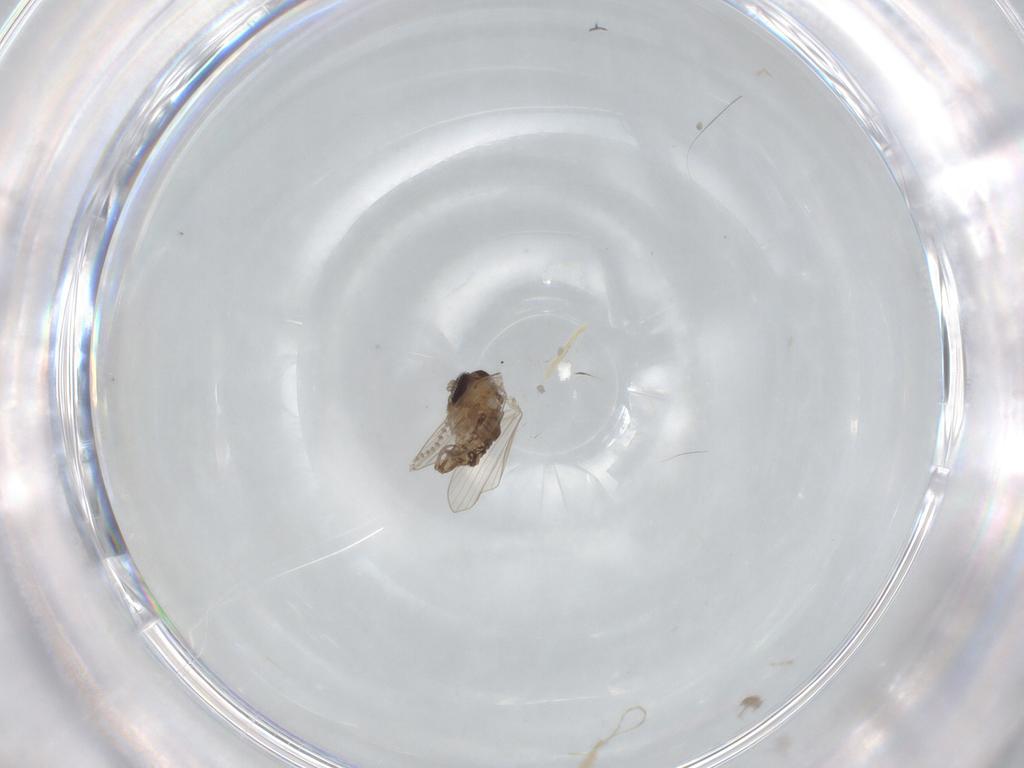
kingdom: Animalia
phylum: Arthropoda
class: Insecta
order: Diptera
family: Psychodidae
